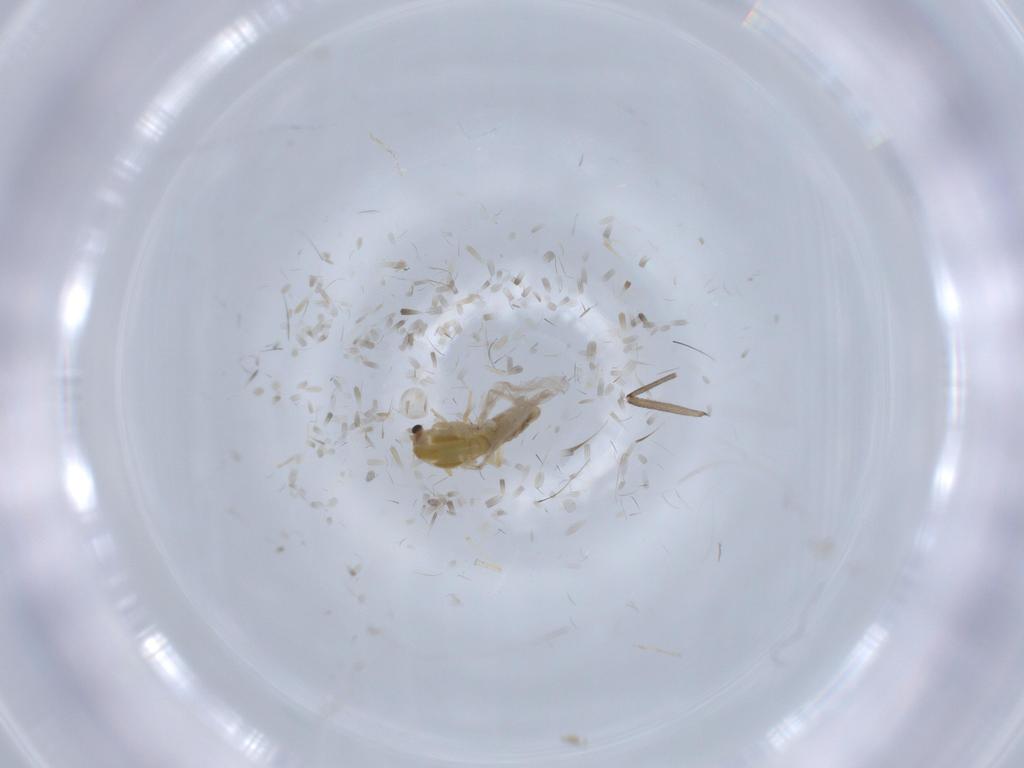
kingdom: Animalia
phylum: Arthropoda
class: Insecta
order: Diptera
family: Chironomidae
